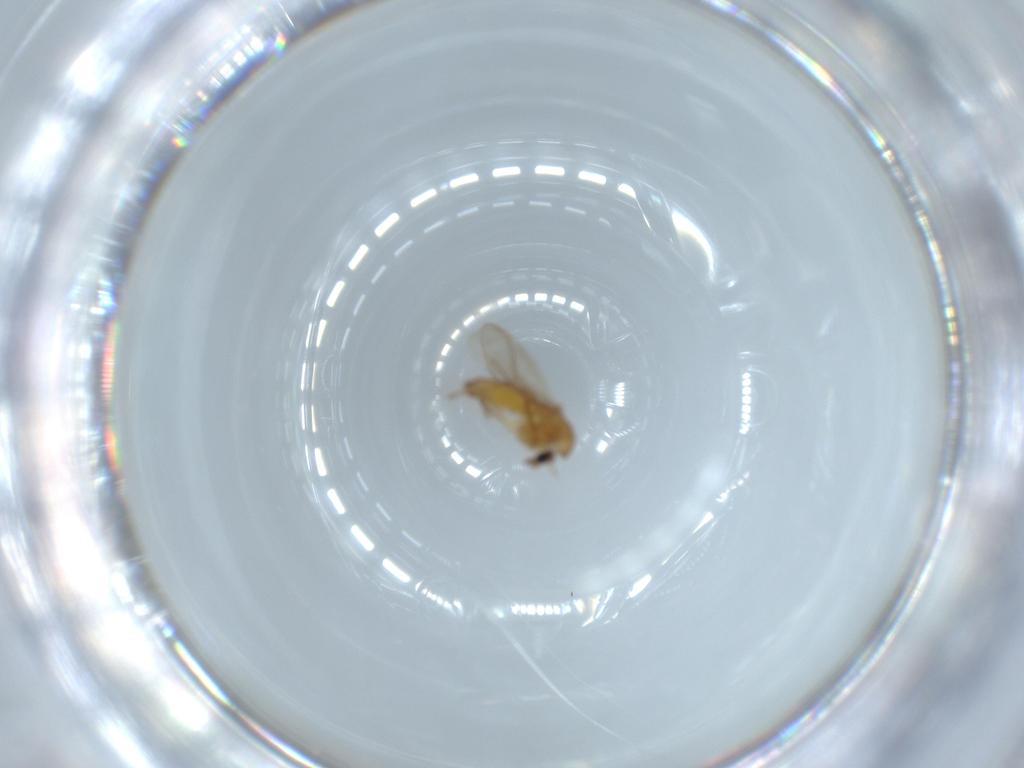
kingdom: Animalia
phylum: Arthropoda
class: Insecta
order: Diptera
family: Chironomidae
